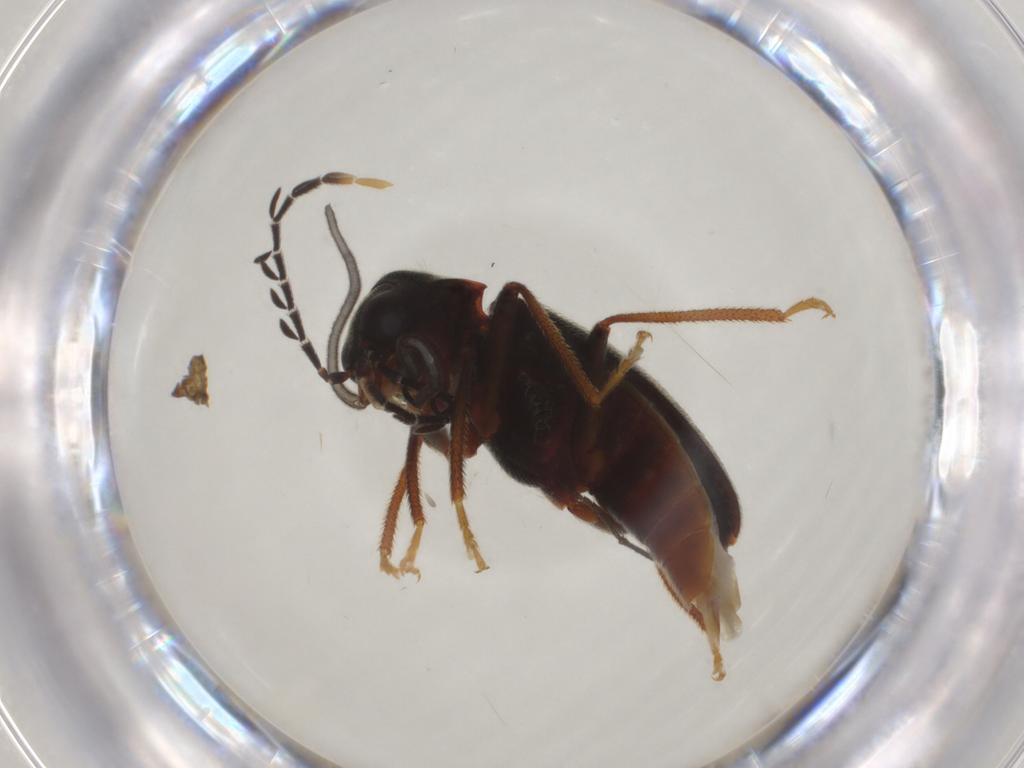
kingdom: Animalia
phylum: Arthropoda
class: Insecta
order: Coleoptera
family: Ptilodactylidae
